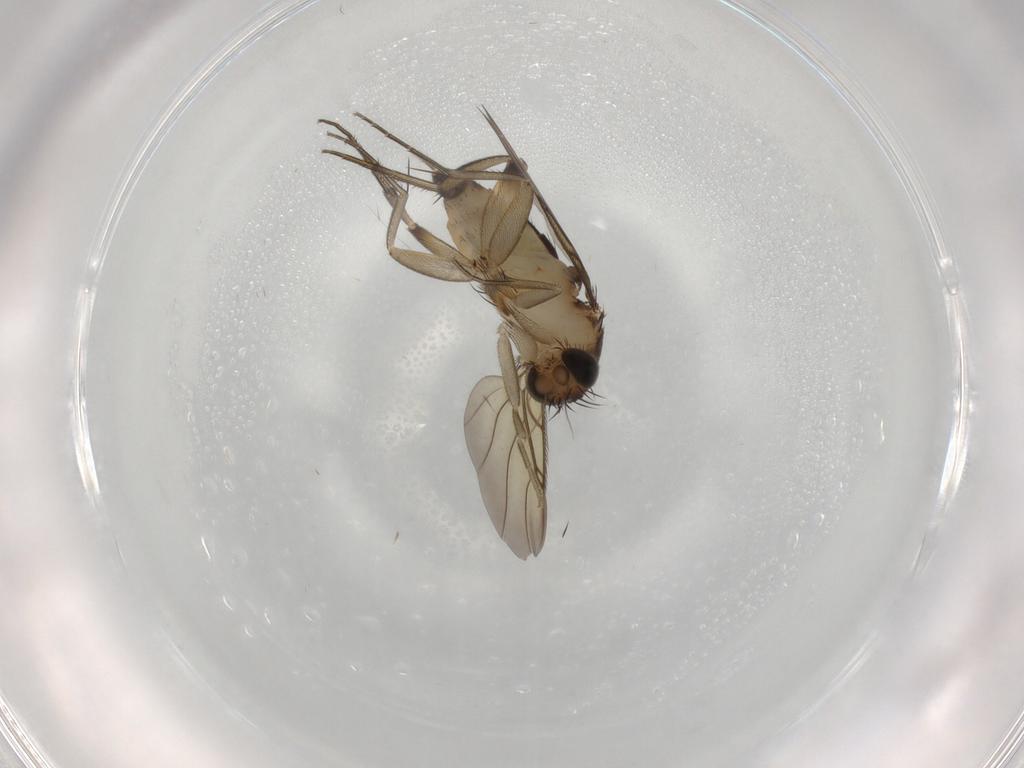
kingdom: Animalia
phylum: Arthropoda
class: Insecta
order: Diptera
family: Phoridae
